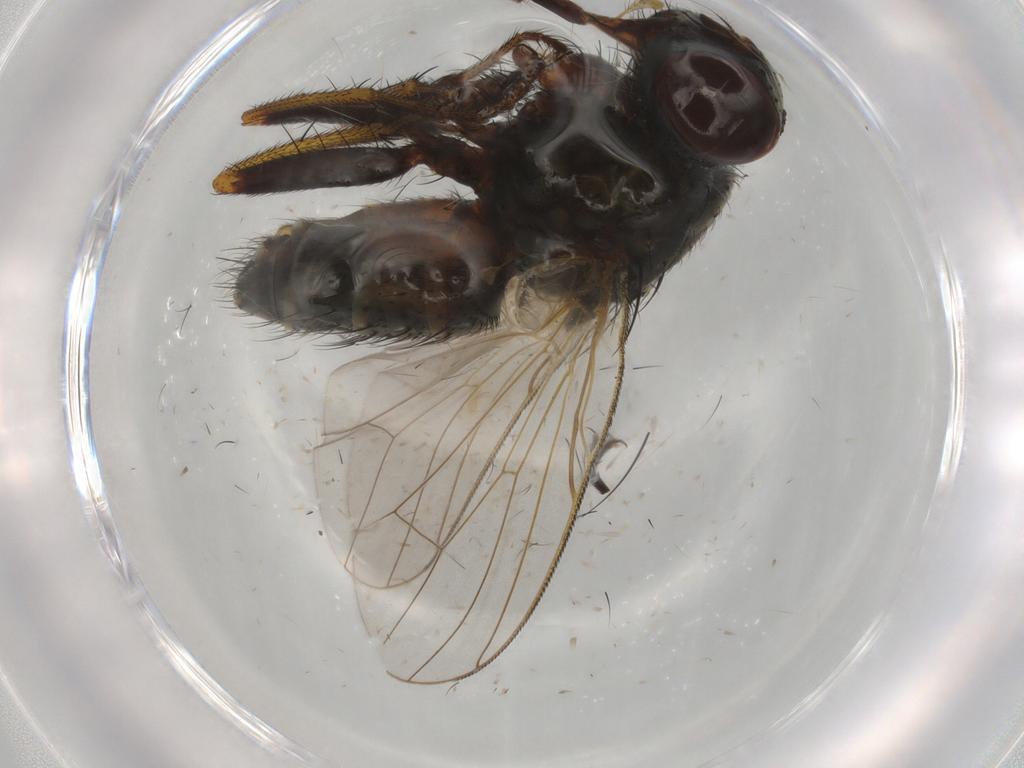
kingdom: Animalia
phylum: Arthropoda
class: Insecta
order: Diptera
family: Muscidae
